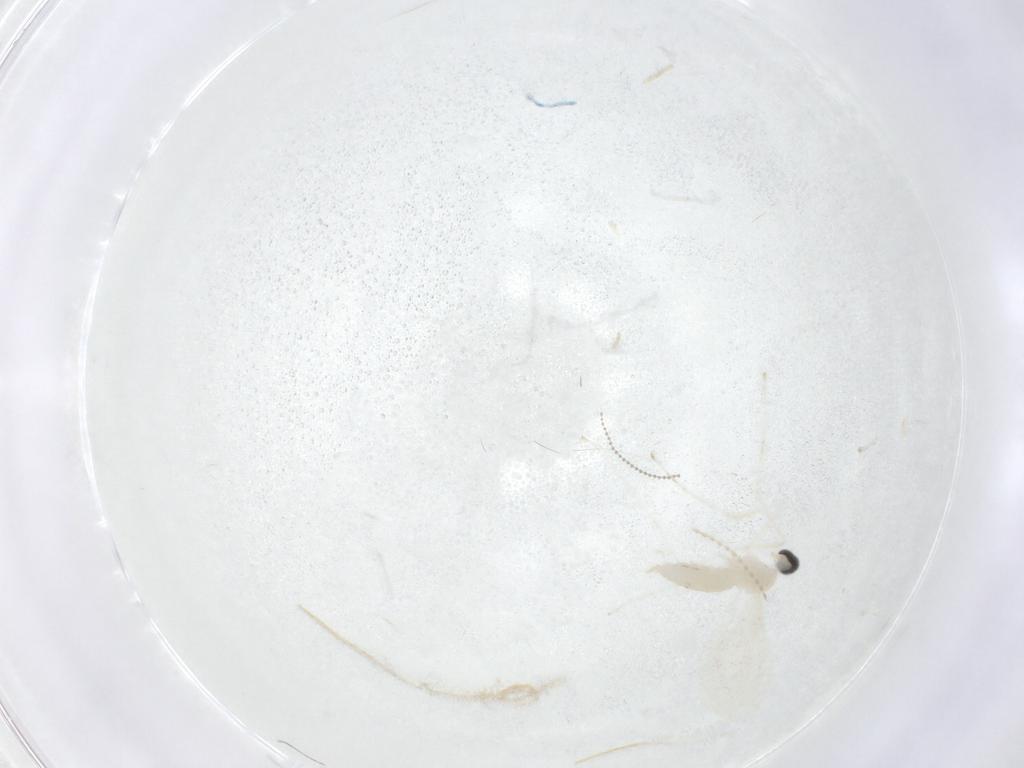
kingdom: Animalia
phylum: Arthropoda
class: Insecta
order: Diptera
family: Cecidomyiidae
